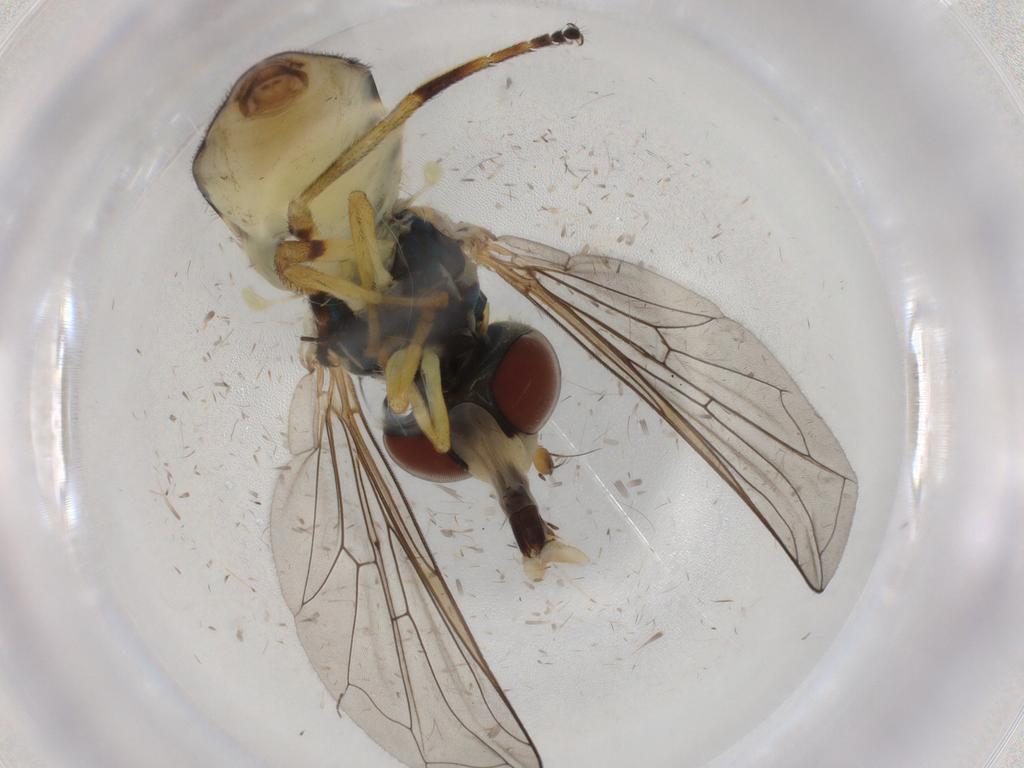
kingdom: Animalia
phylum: Arthropoda
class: Insecta
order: Diptera
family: Syrphidae
